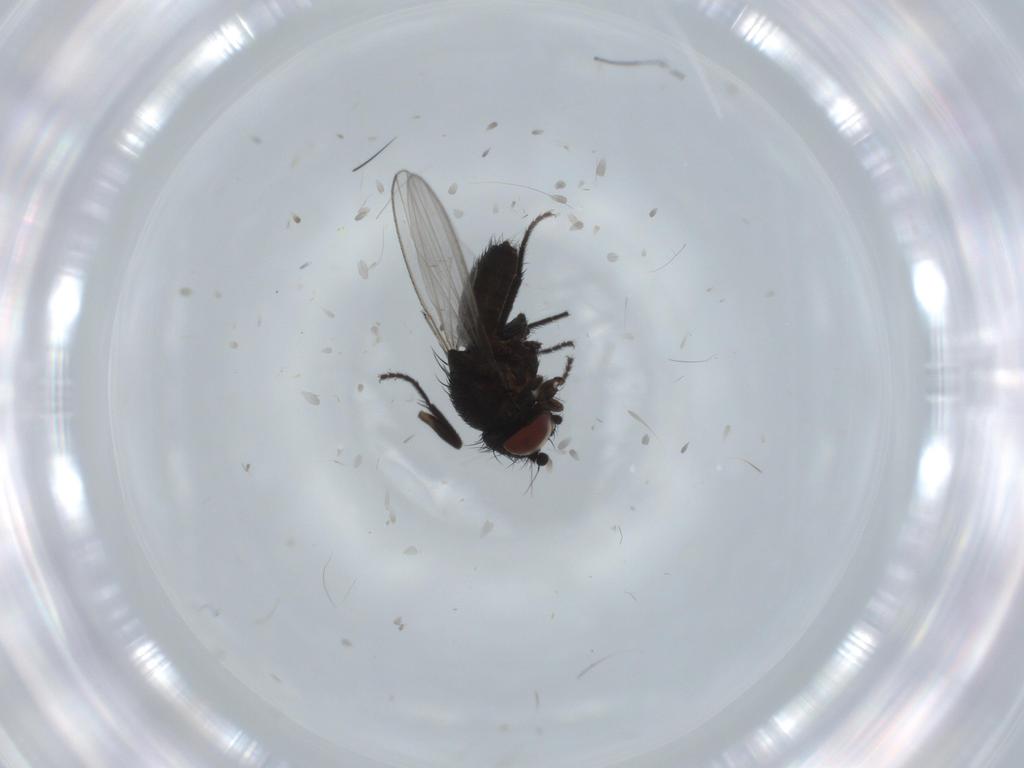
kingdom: Animalia
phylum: Arthropoda
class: Insecta
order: Diptera
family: Milichiidae
